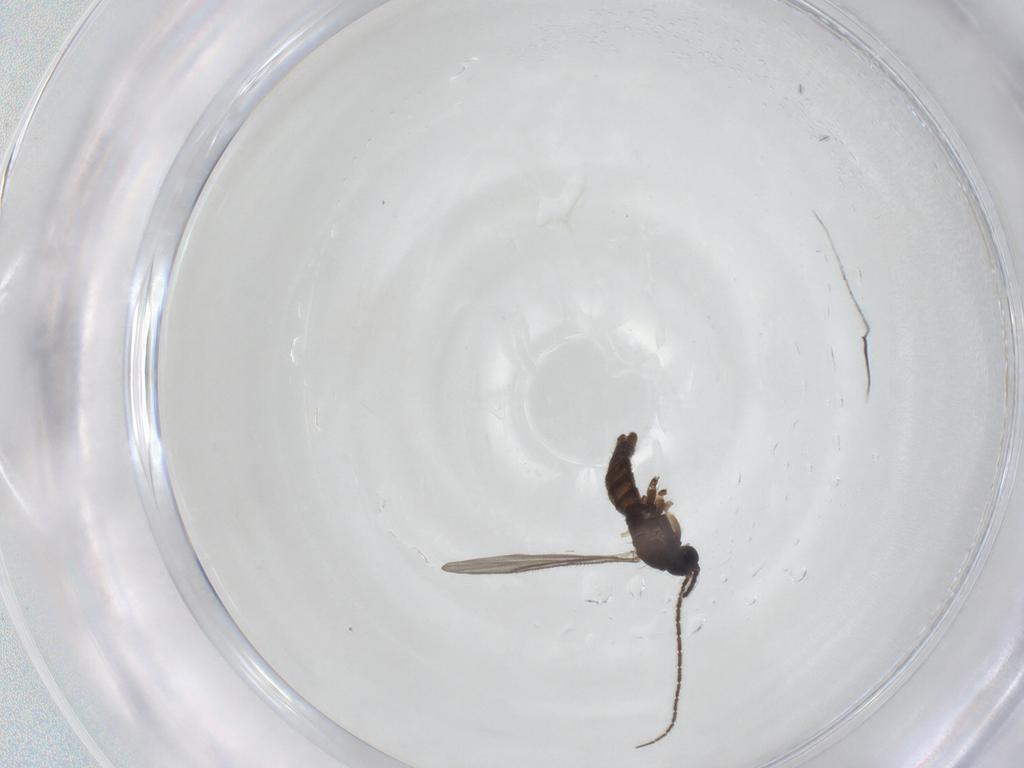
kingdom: Animalia
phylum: Arthropoda
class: Insecta
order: Diptera
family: Sciaridae
